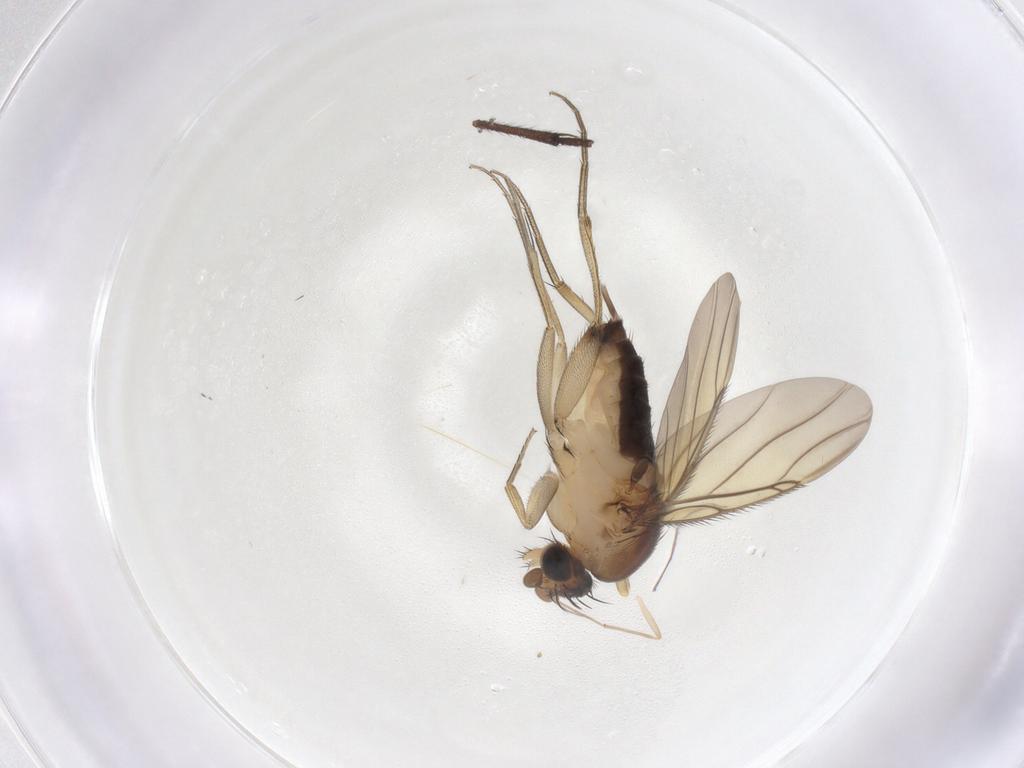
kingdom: Animalia
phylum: Arthropoda
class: Insecta
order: Diptera
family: Phoridae
